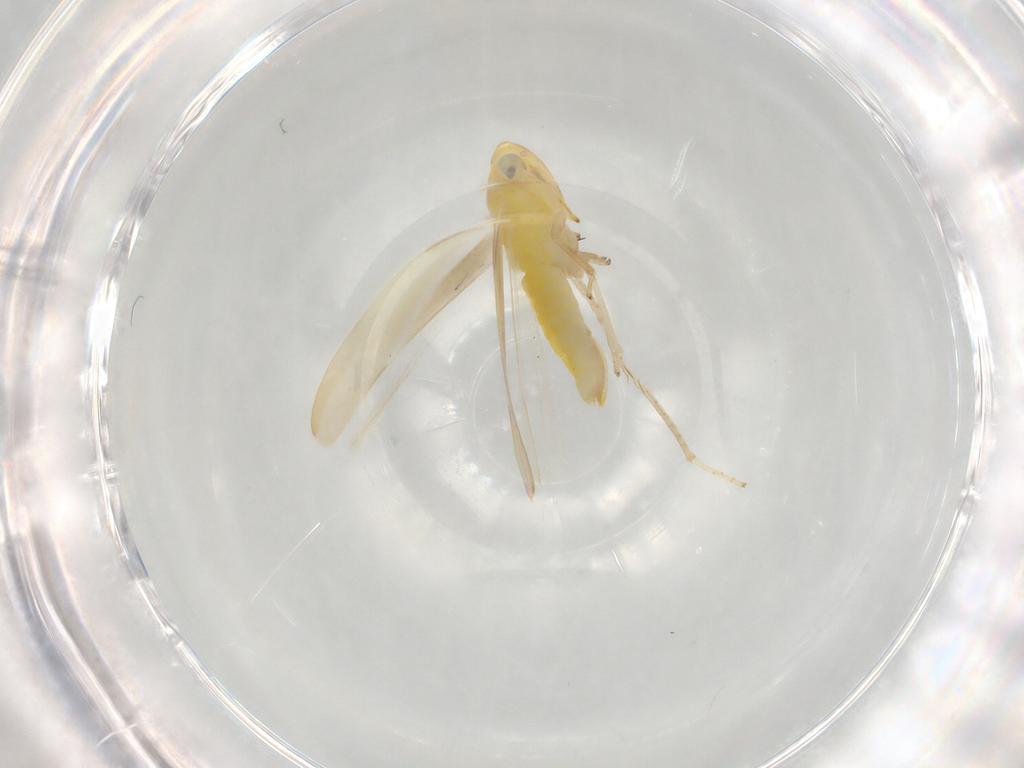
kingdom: Animalia
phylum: Arthropoda
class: Insecta
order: Hemiptera
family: Cicadellidae
